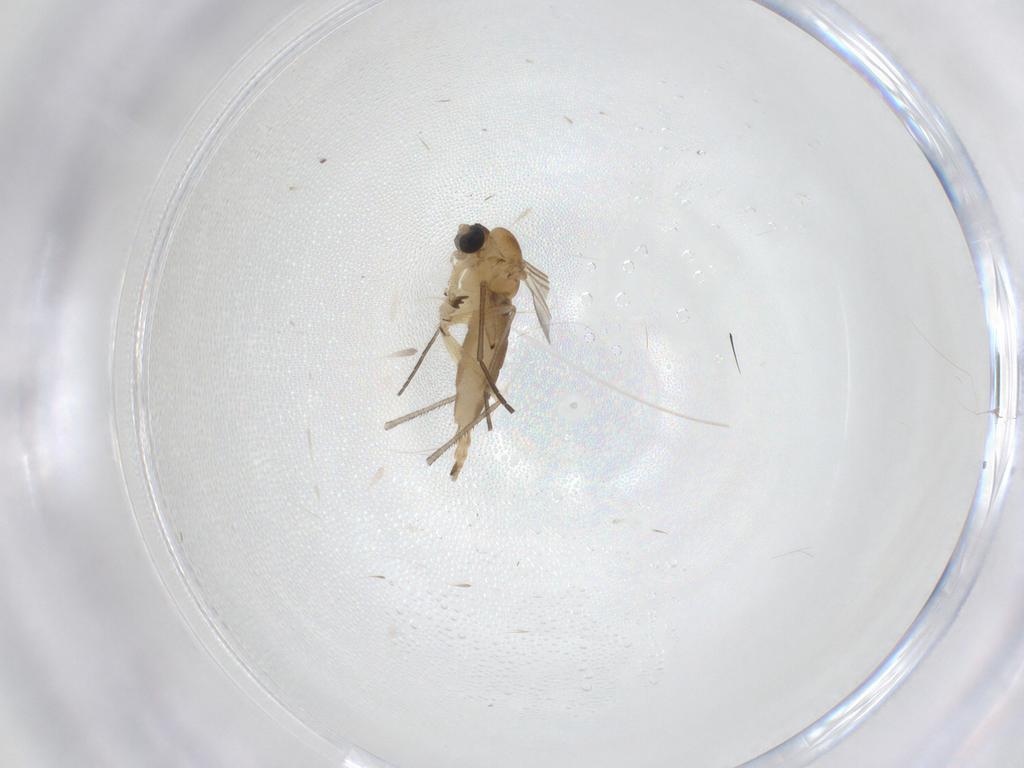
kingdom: Animalia
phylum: Arthropoda
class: Insecta
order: Diptera
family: Sciaridae
